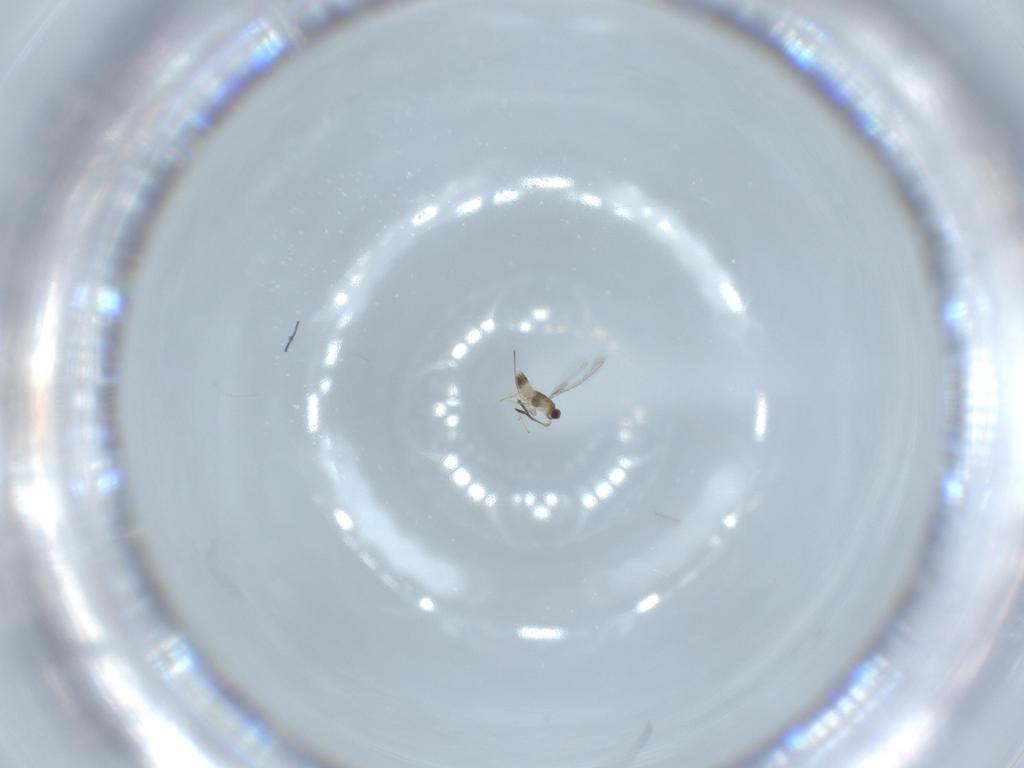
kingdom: Animalia
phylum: Arthropoda
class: Insecta
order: Hymenoptera
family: Mymaridae
